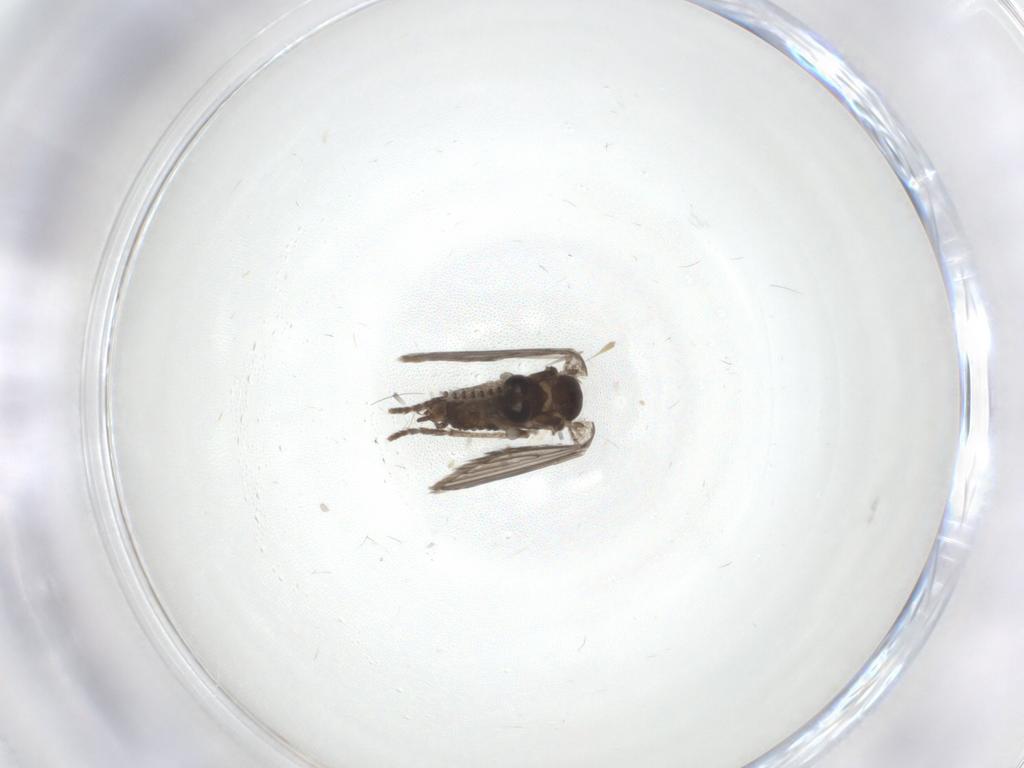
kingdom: Animalia
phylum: Arthropoda
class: Insecta
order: Diptera
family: Psychodidae
